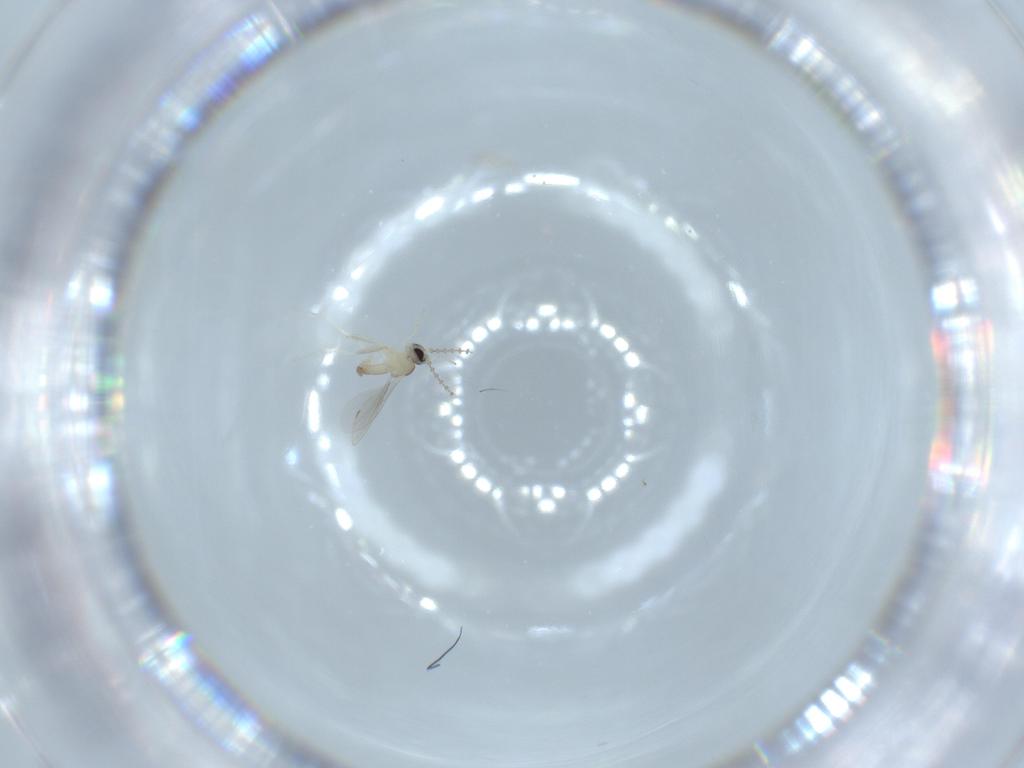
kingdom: Animalia
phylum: Arthropoda
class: Insecta
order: Diptera
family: Cecidomyiidae
